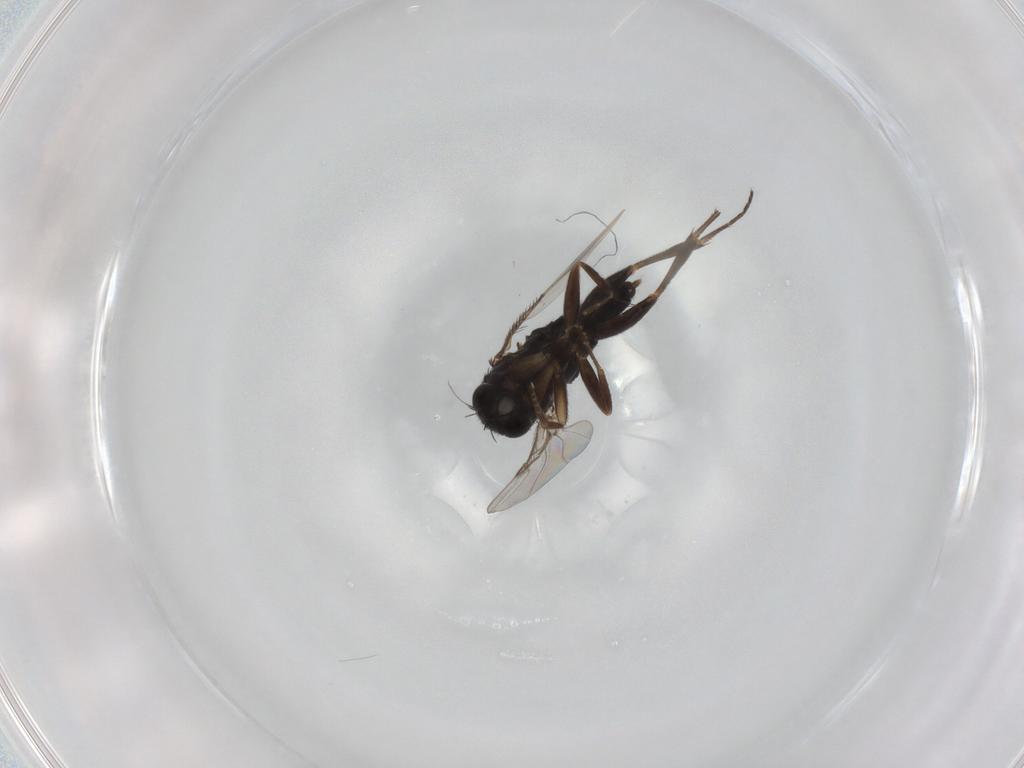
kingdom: Animalia
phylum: Arthropoda
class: Insecta
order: Diptera
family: Phoridae
